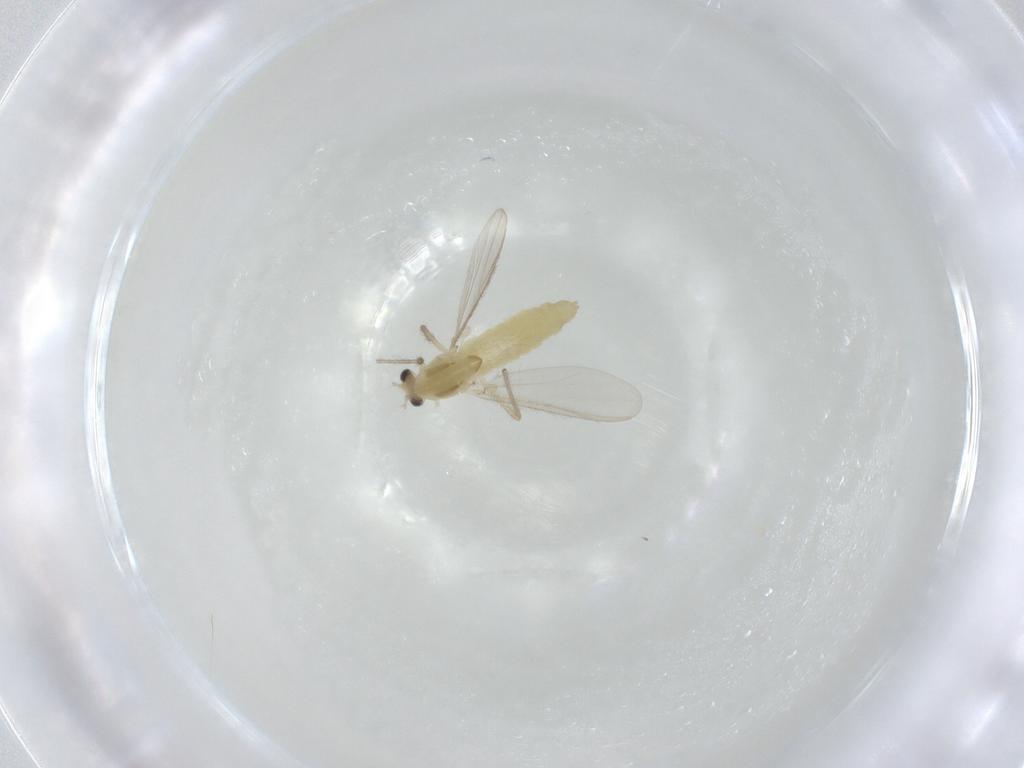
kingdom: Animalia
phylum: Arthropoda
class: Insecta
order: Diptera
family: Chironomidae
